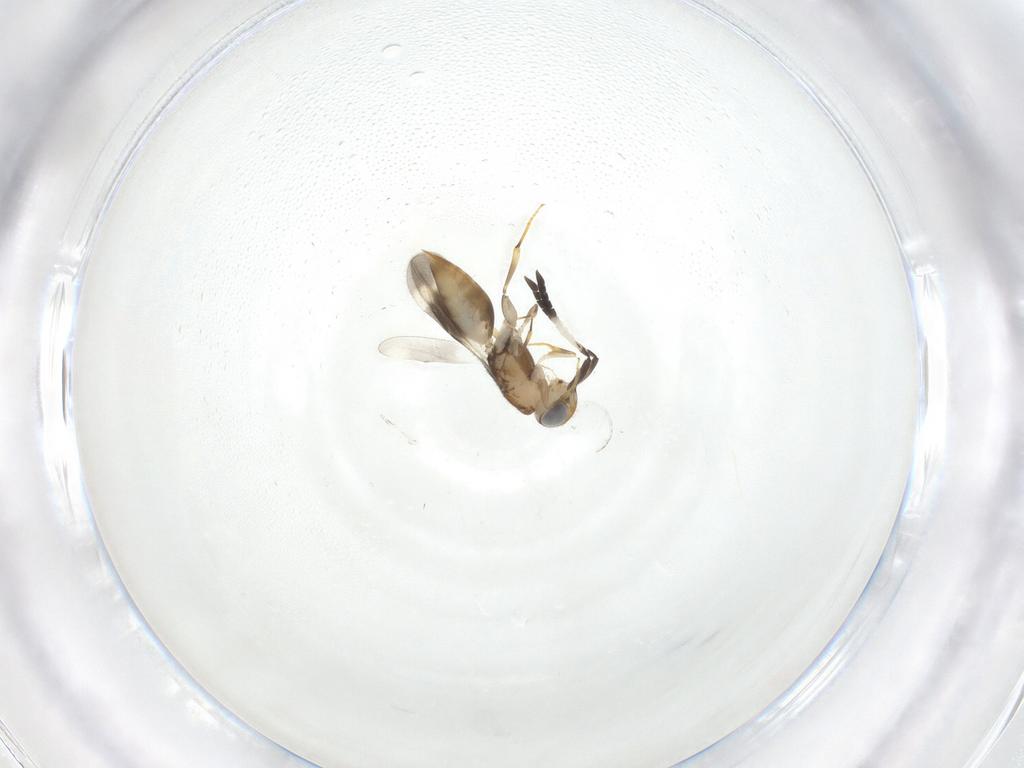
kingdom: Animalia
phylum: Arthropoda
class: Insecta
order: Hymenoptera
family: Megaspilidae
